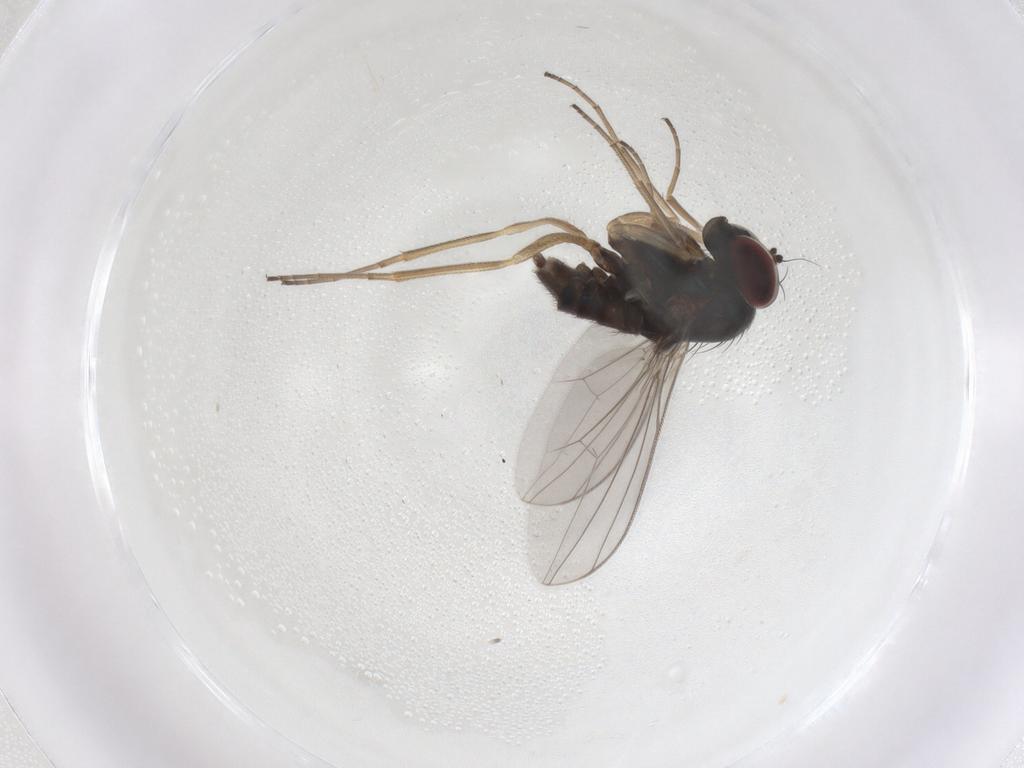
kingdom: Animalia
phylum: Arthropoda
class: Insecta
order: Diptera
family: Dolichopodidae
